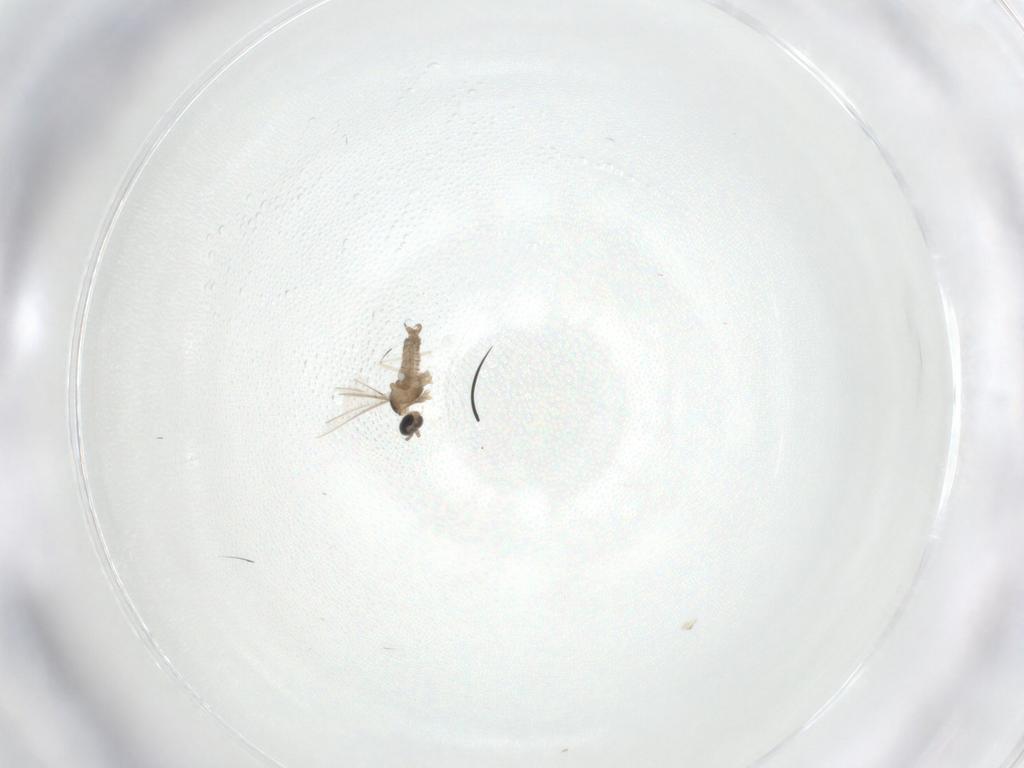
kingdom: Animalia
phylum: Arthropoda
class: Insecta
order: Diptera
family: Cecidomyiidae
